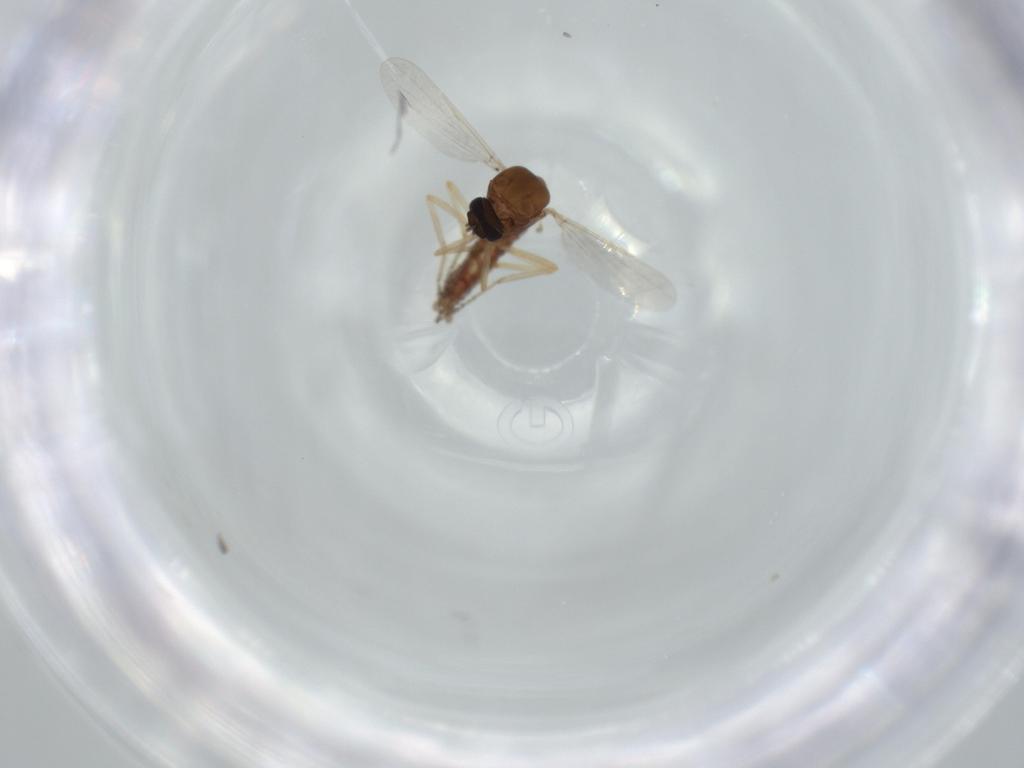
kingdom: Animalia
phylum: Arthropoda
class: Insecta
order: Diptera
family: Ceratopogonidae
